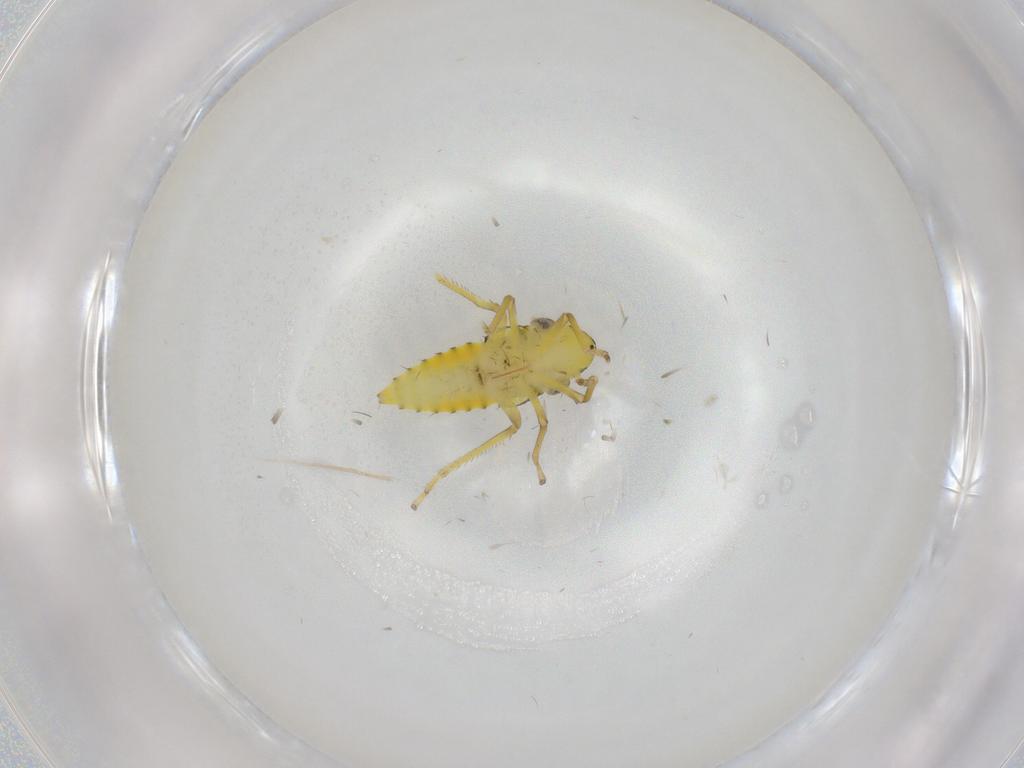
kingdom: Animalia
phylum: Arthropoda
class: Insecta
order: Hemiptera
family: Cicadellidae
